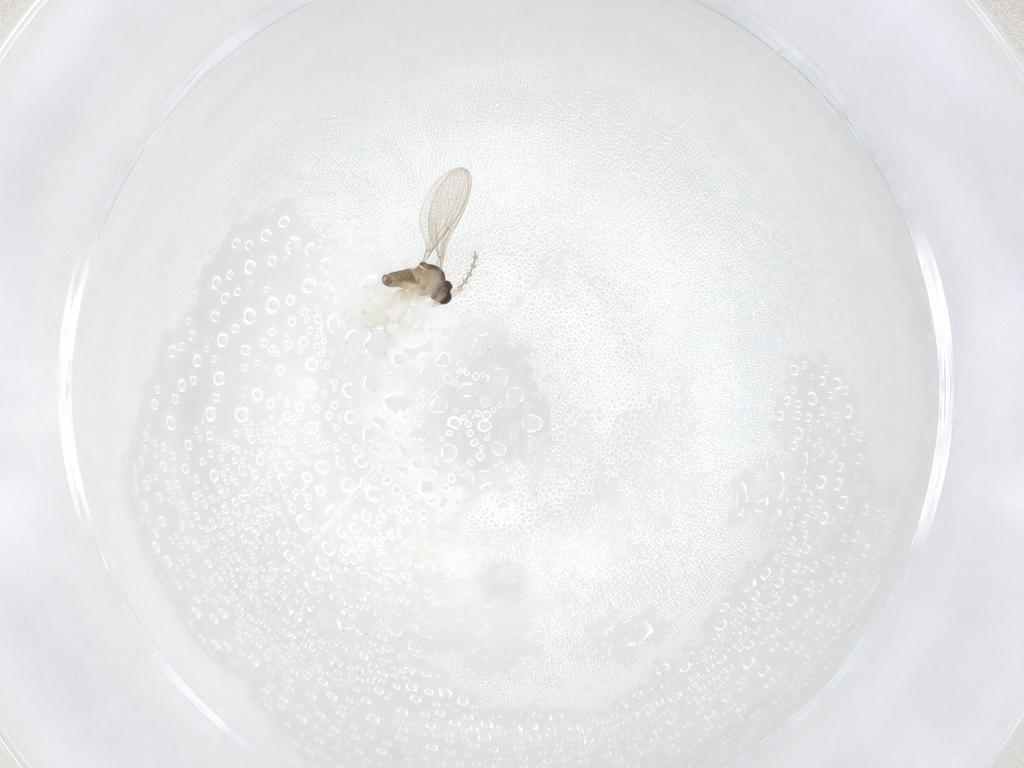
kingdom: Animalia
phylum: Arthropoda
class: Insecta
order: Diptera
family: Cecidomyiidae
